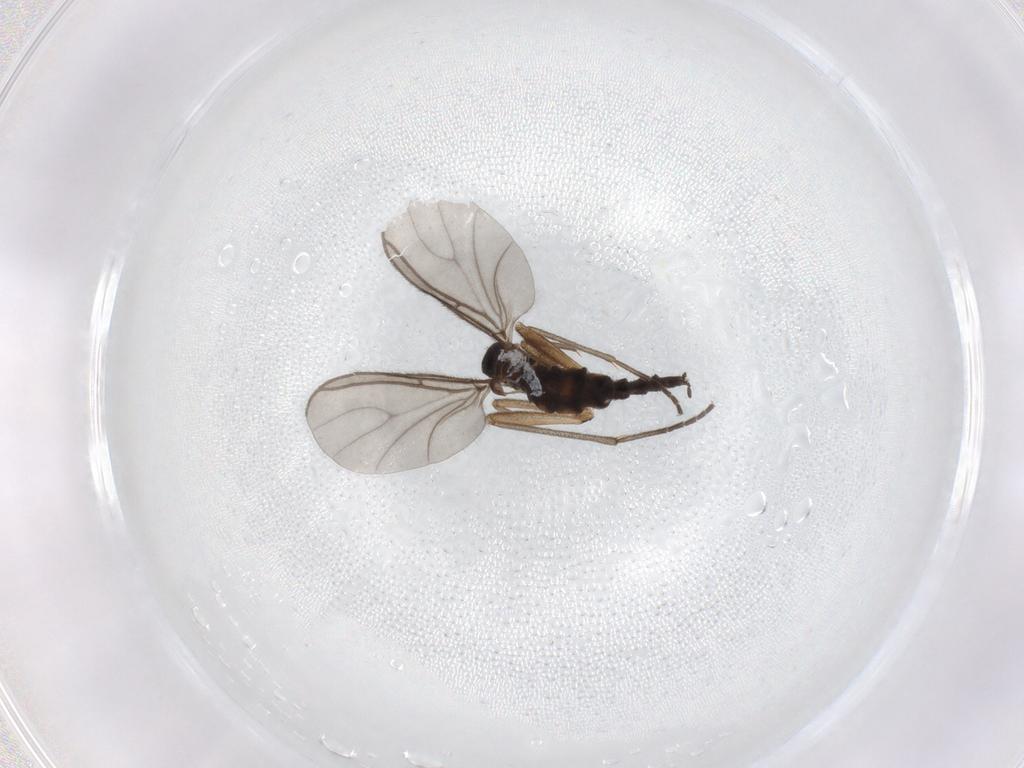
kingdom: Animalia
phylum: Arthropoda
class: Insecta
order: Diptera
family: Sciaridae
